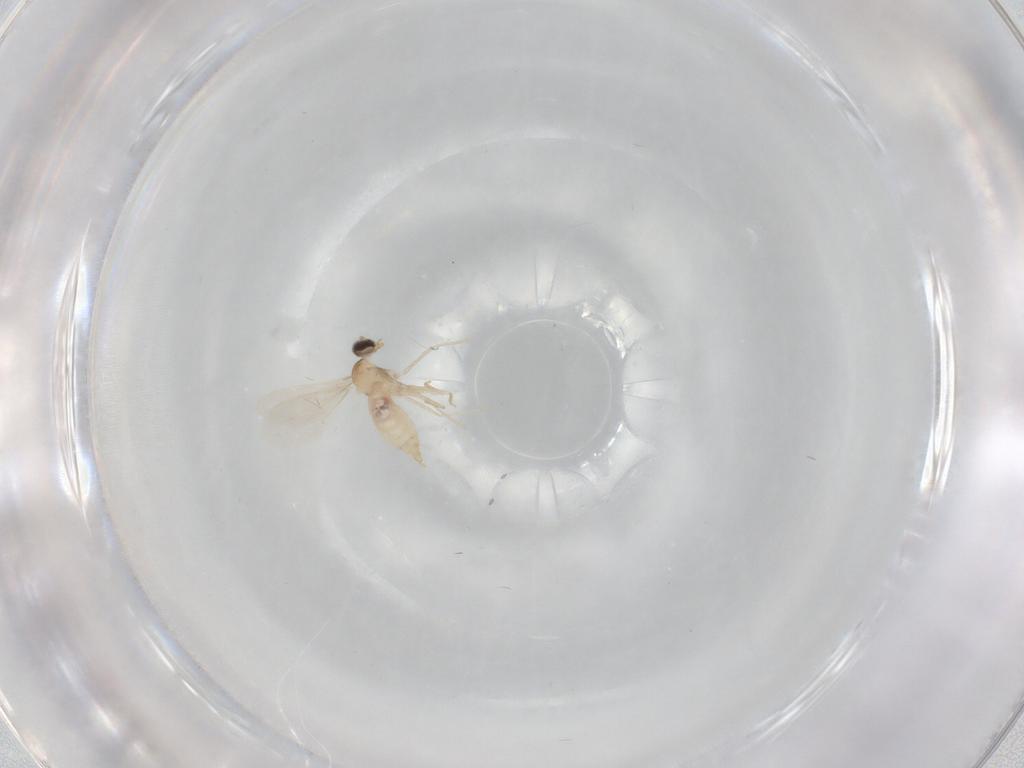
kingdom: Animalia
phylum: Arthropoda
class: Insecta
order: Diptera
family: Cecidomyiidae
